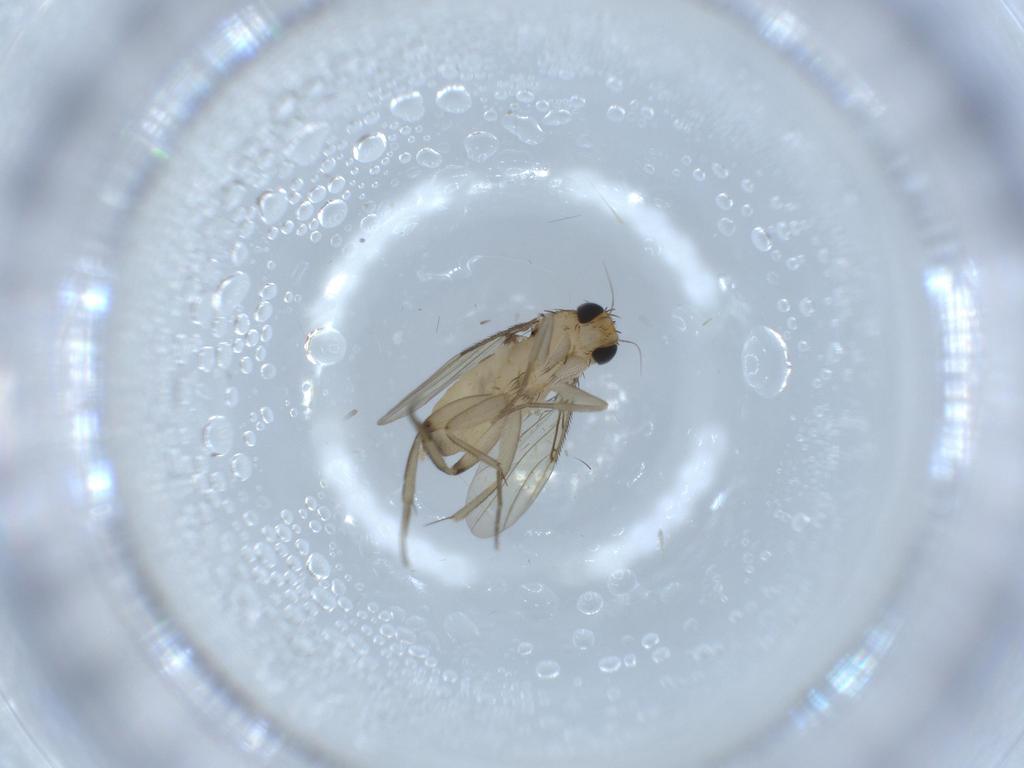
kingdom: Animalia
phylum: Arthropoda
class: Insecta
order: Diptera
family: Phoridae
